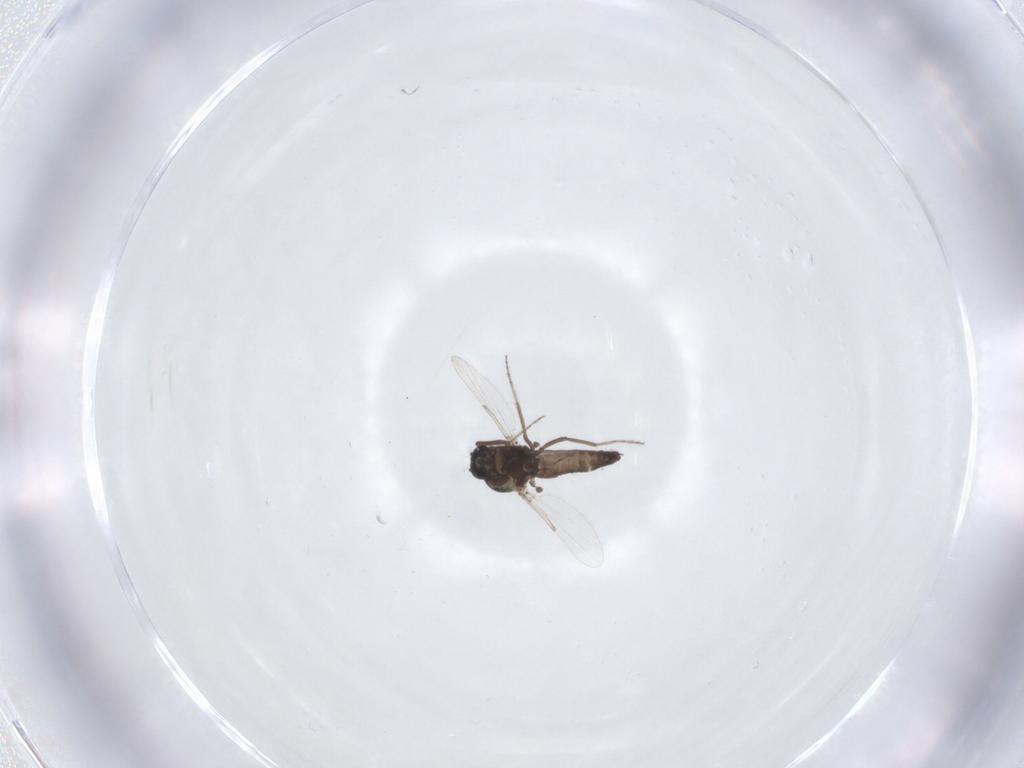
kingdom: Animalia
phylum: Arthropoda
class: Insecta
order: Diptera
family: Ceratopogonidae
